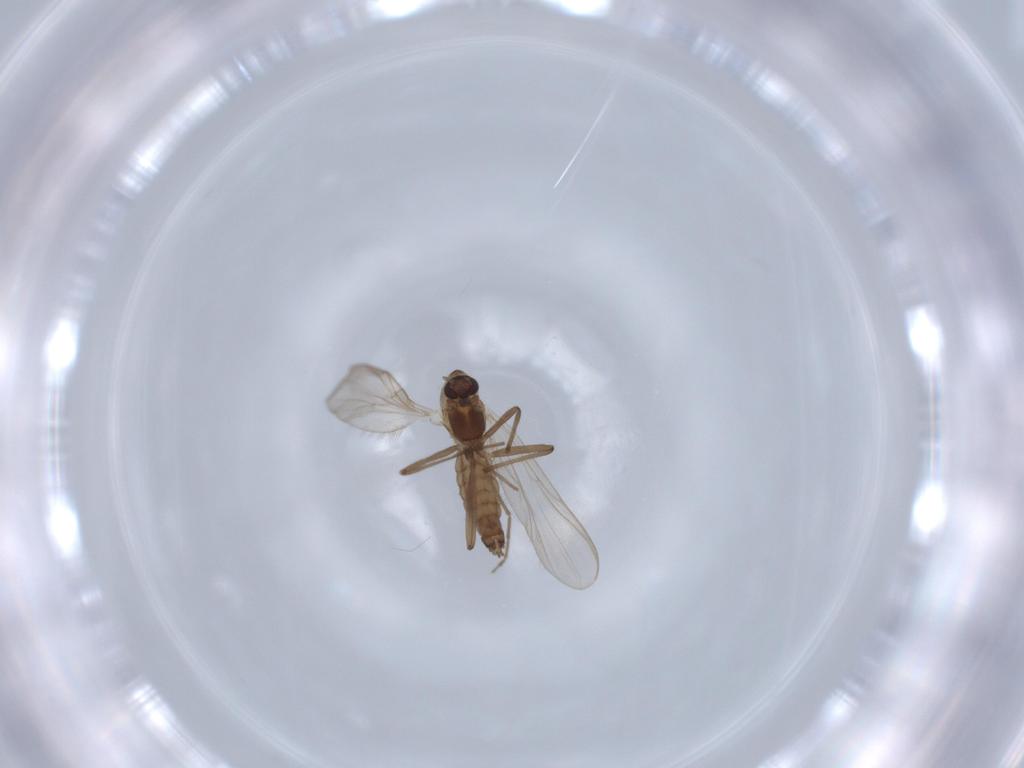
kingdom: Animalia
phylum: Arthropoda
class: Insecta
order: Diptera
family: Chironomidae
